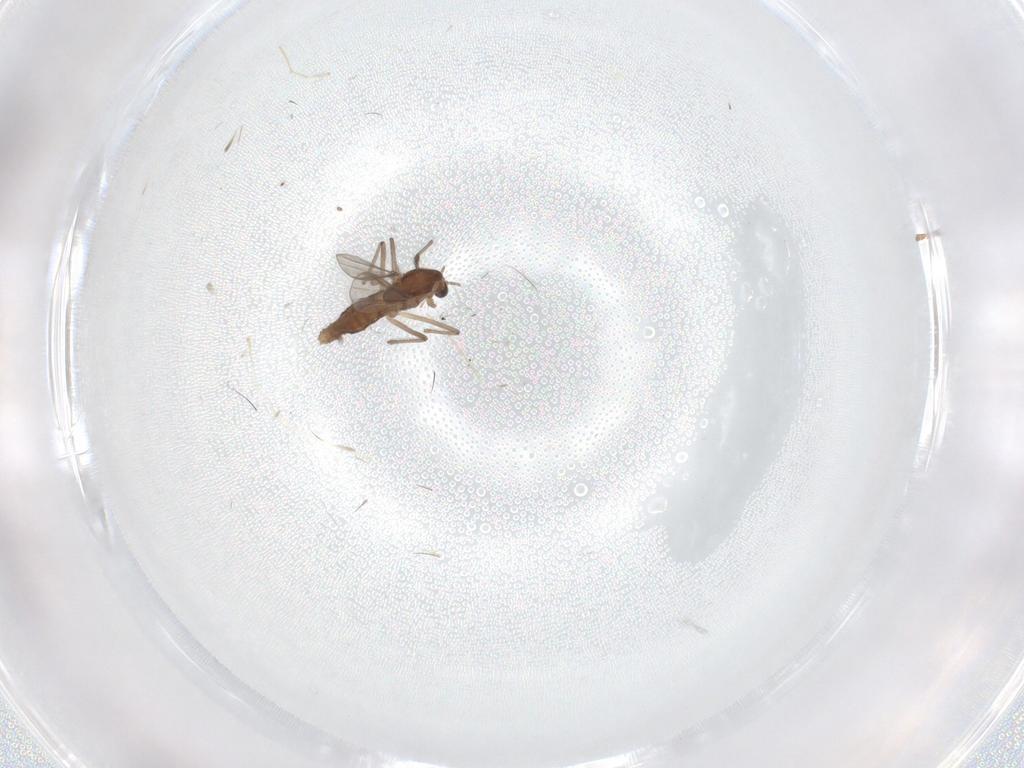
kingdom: Animalia
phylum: Arthropoda
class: Insecta
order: Diptera
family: Chironomidae
